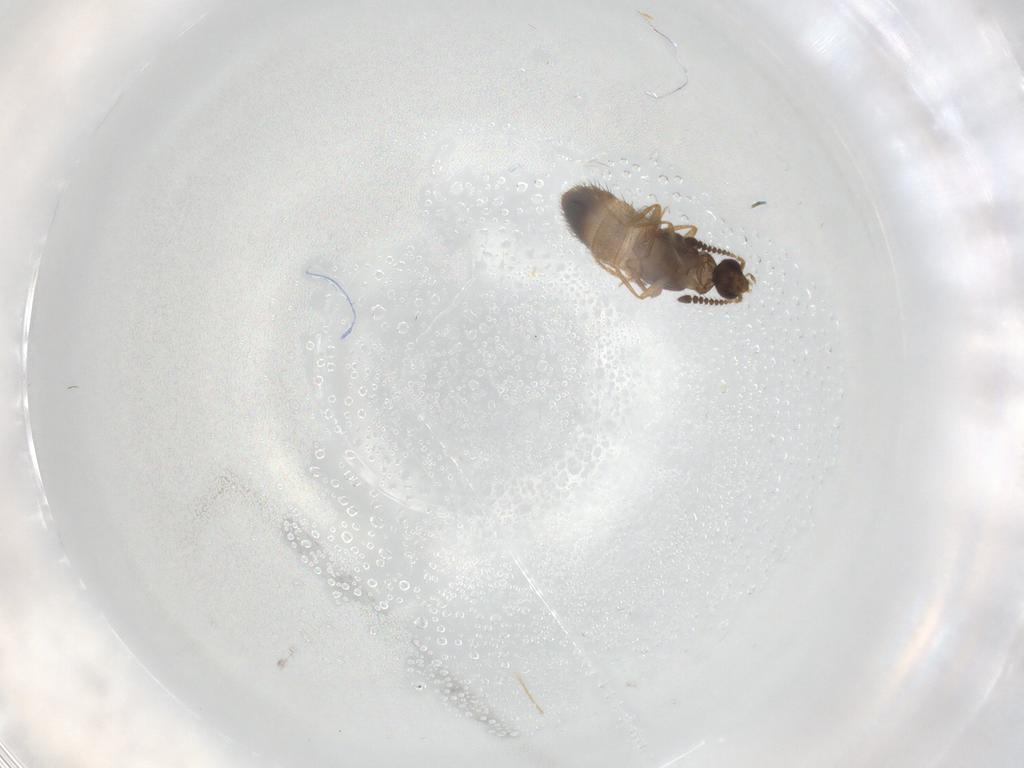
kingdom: Animalia
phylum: Arthropoda
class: Insecta
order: Coleoptera
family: Staphylinidae
